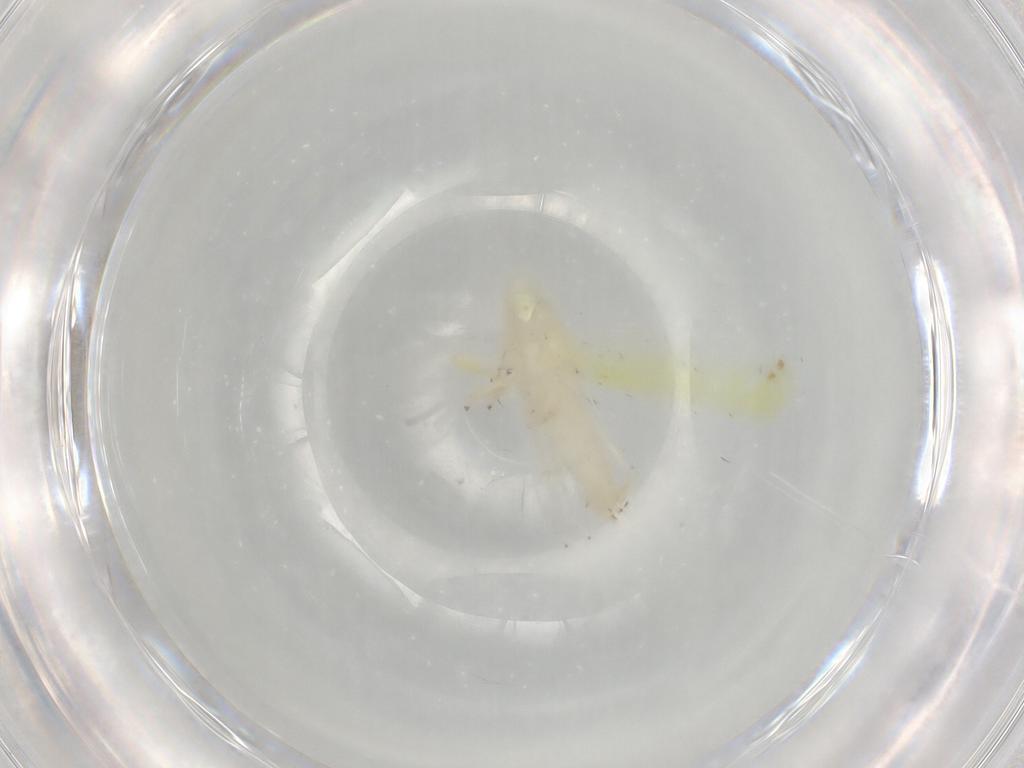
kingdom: Animalia
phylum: Arthropoda
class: Insecta
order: Hemiptera
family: Cicadellidae
